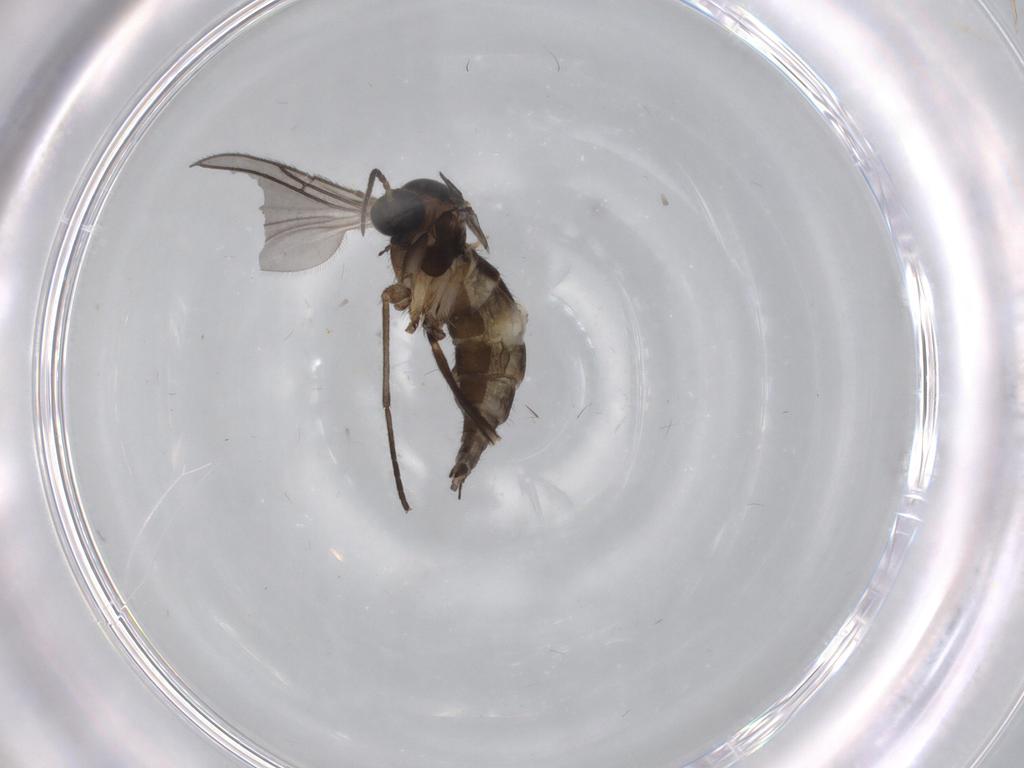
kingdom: Animalia
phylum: Arthropoda
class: Insecta
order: Diptera
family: Sciaridae
